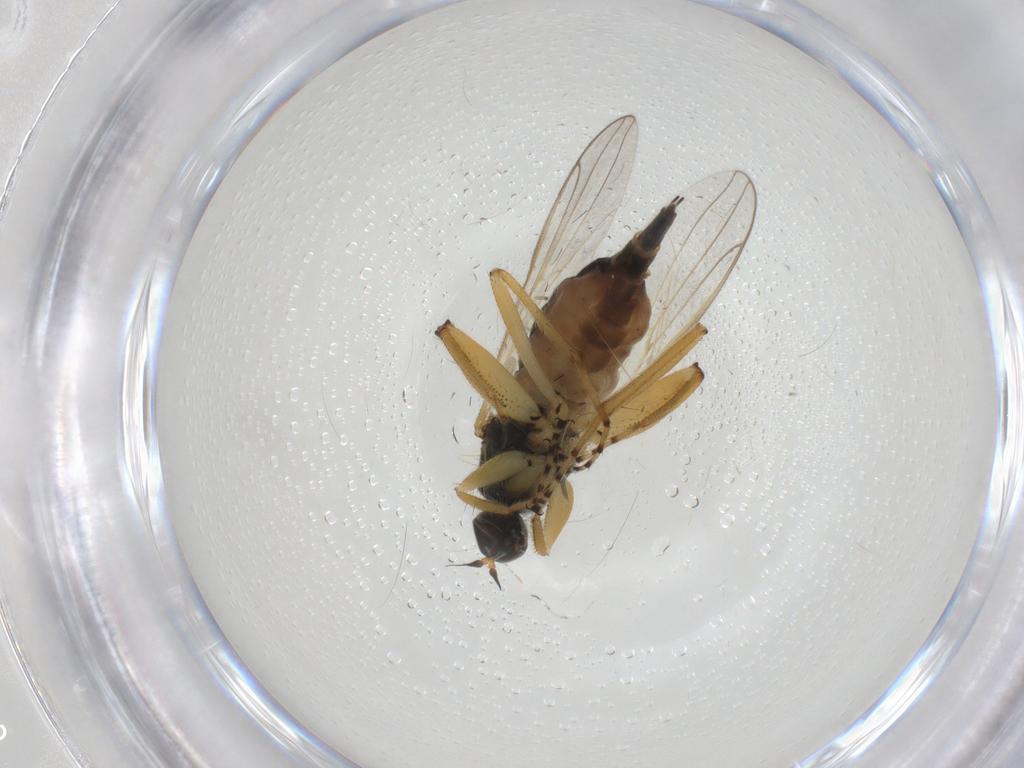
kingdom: Animalia
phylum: Arthropoda
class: Insecta
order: Diptera
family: Hybotidae
